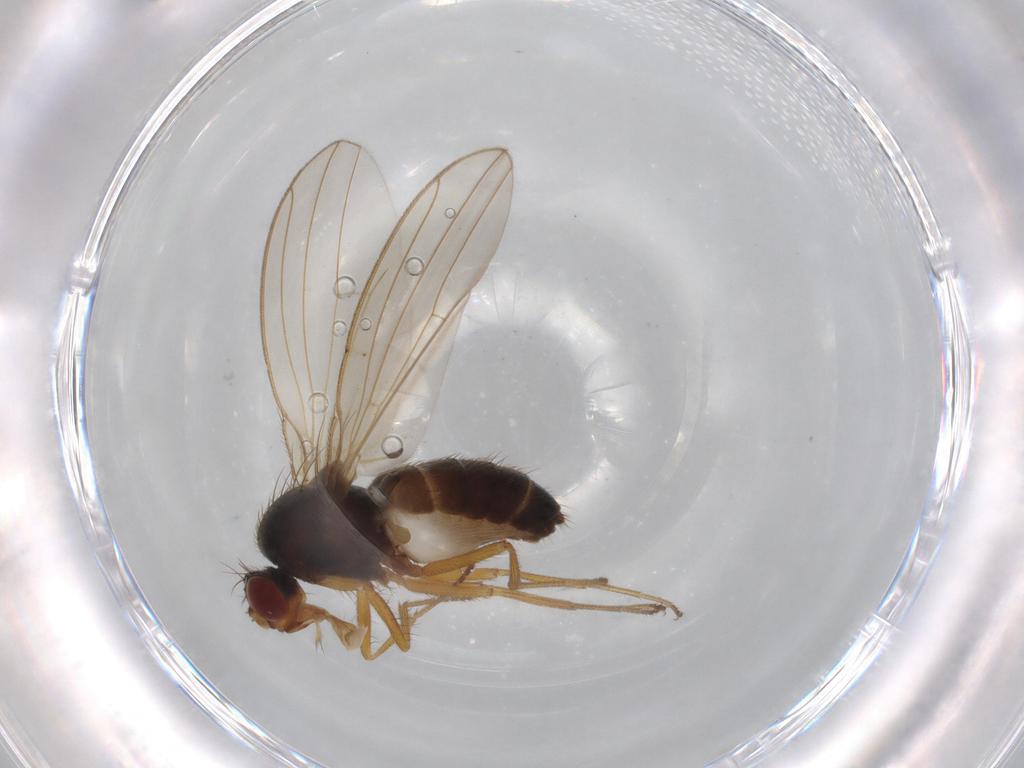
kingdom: Animalia
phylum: Arthropoda
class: Insecta
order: Diptera
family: Drosophilidae
